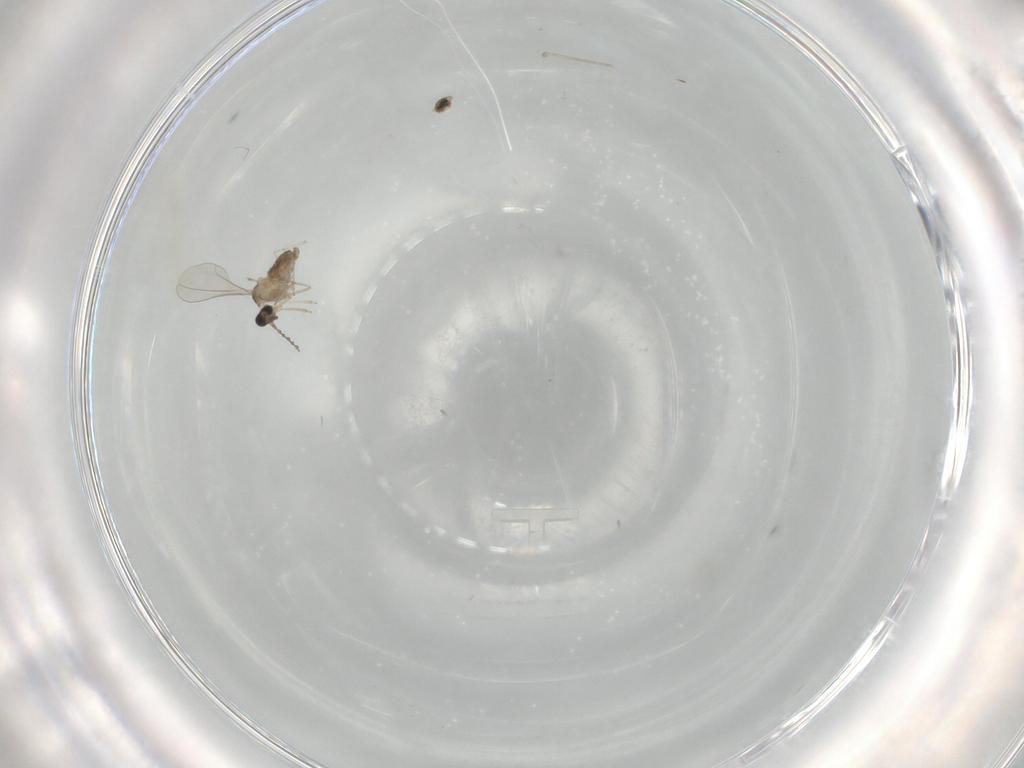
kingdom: Animalia
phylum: Arthropoda
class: Insecta
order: Diptera
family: Cecidomyiidae
